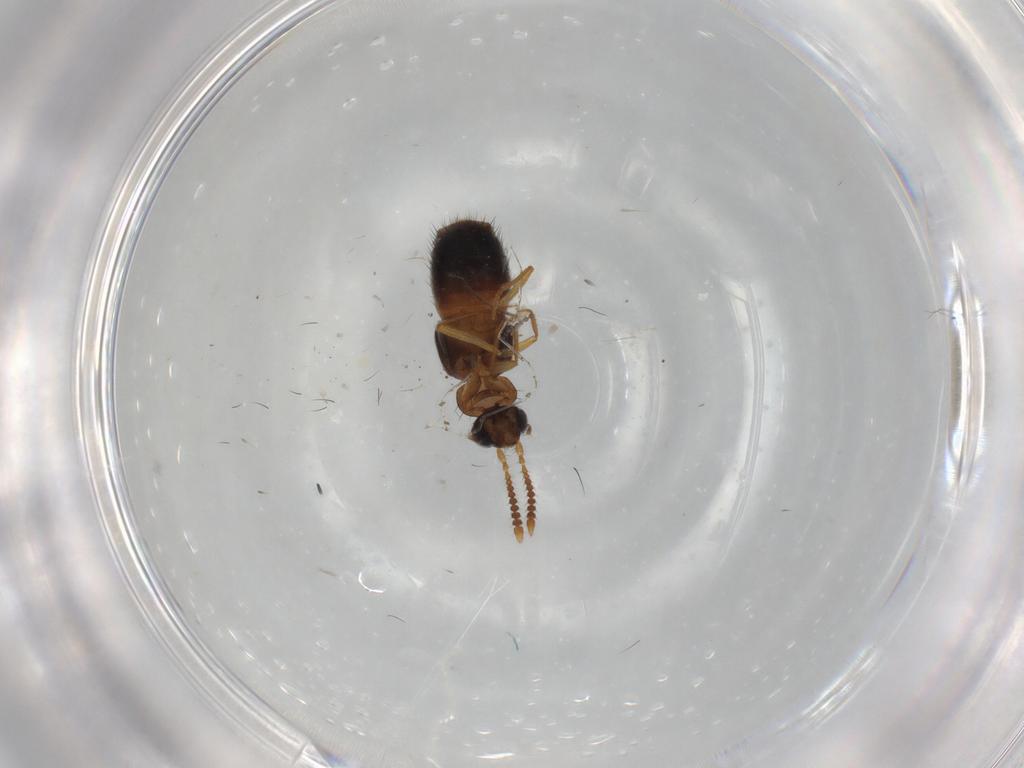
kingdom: Animalia
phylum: Arthropoda
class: Insecta
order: Coleoptera
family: Staphylinidae
